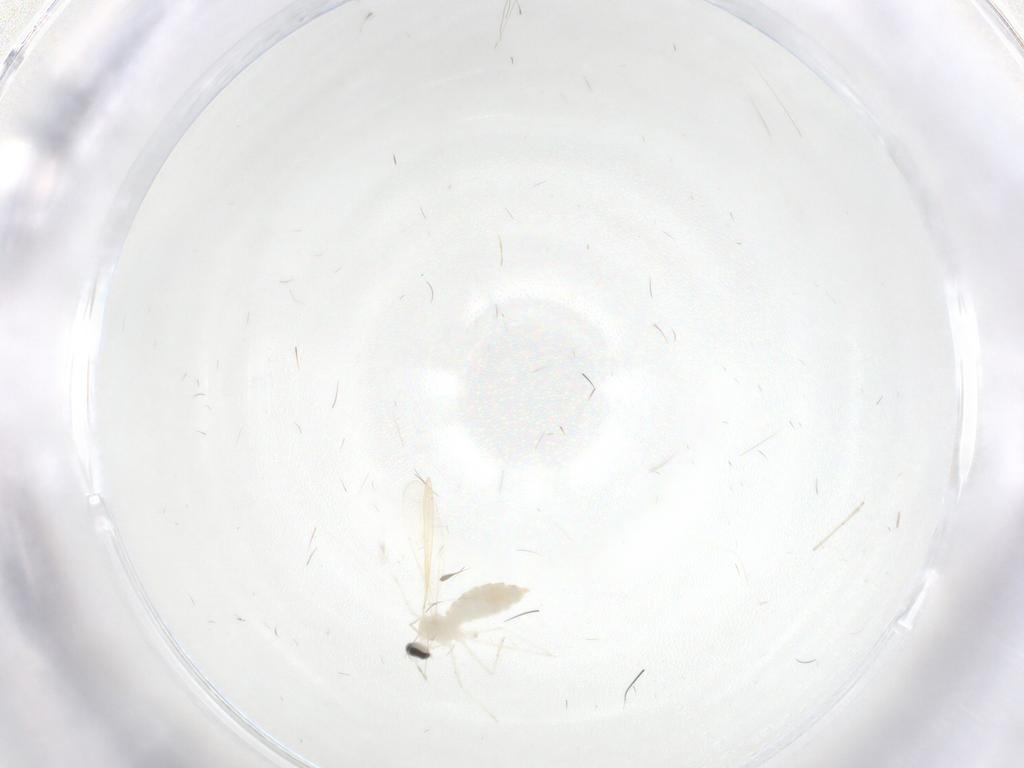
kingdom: Animalia
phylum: Arthropoda
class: Insecta
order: Diptera
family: Cecidomyiidae
